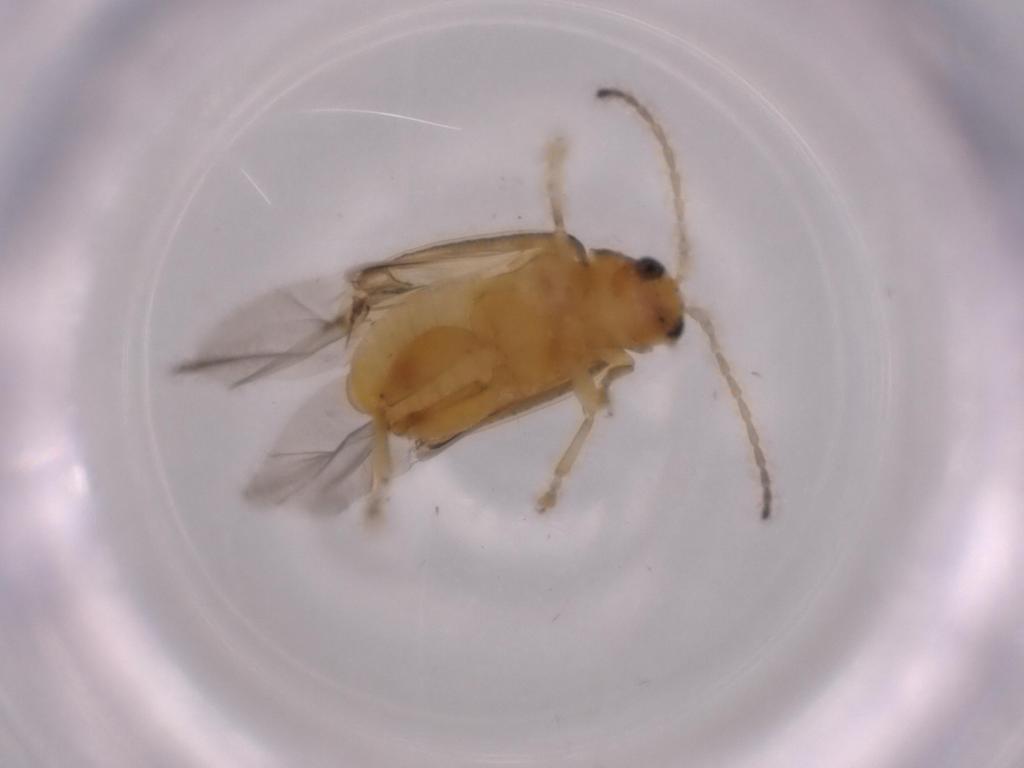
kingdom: Animalia
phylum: Arthropoda
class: Insecta
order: Coleoptera
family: Chrysomelidae
